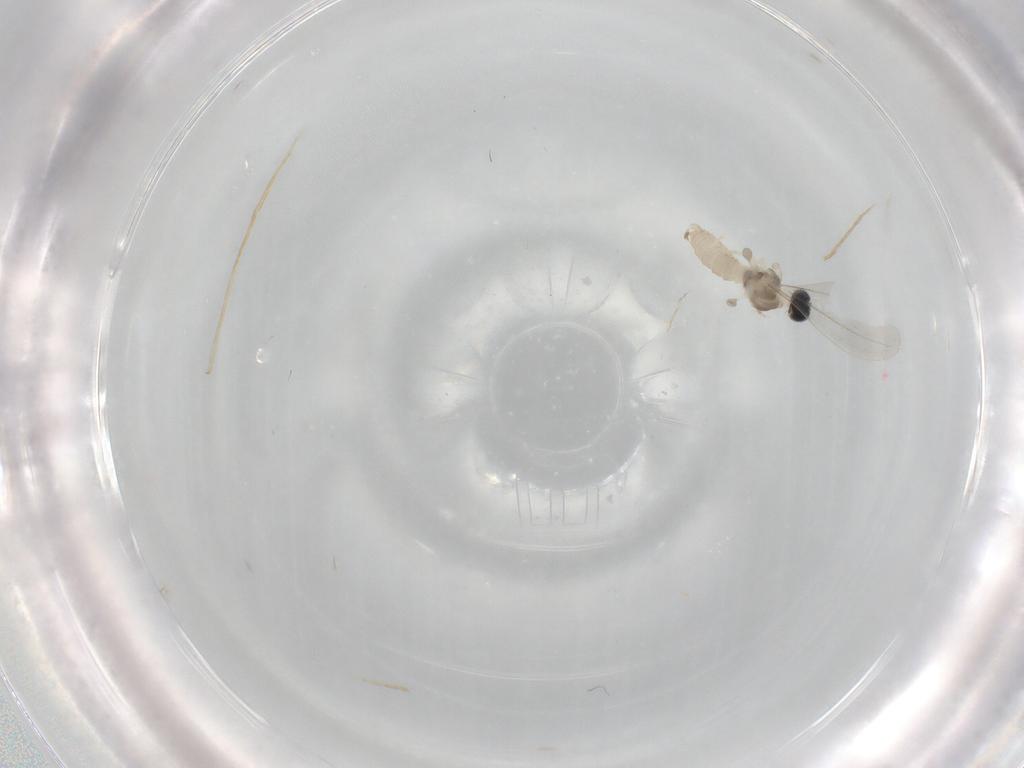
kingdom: Animalia
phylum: Arthropoda
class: Insecta
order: Diptera
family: Cecidomyiidae
